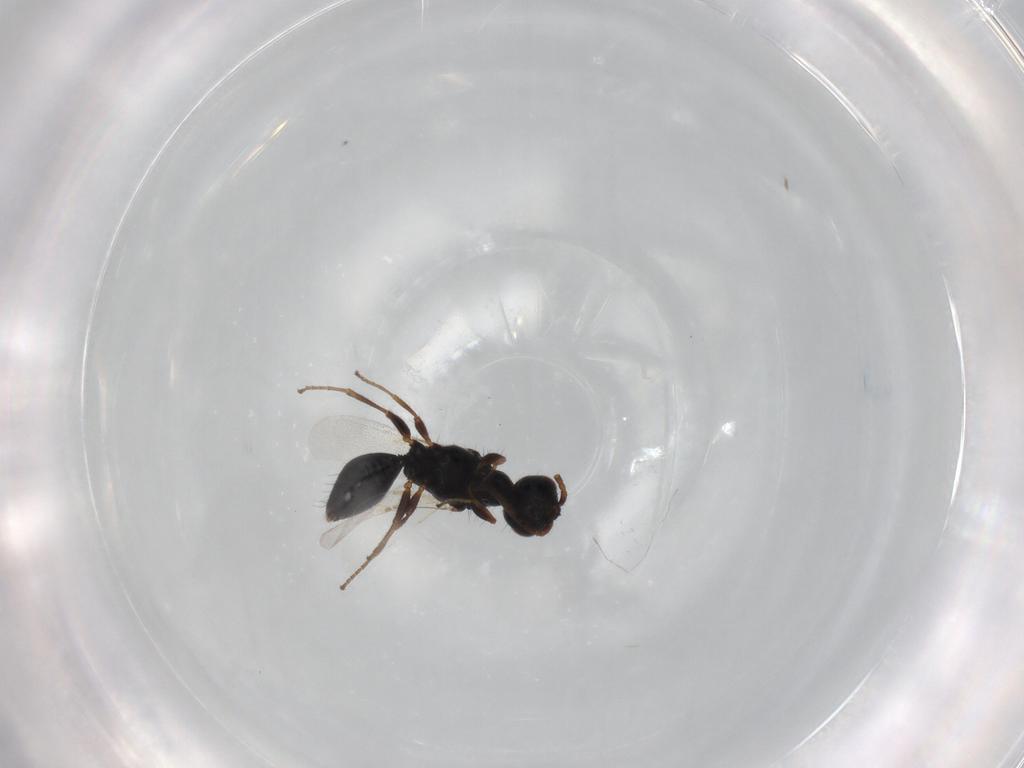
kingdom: Animalia
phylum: Arthropoda
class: Insecta
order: Hymenoptera
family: Bethylidae
